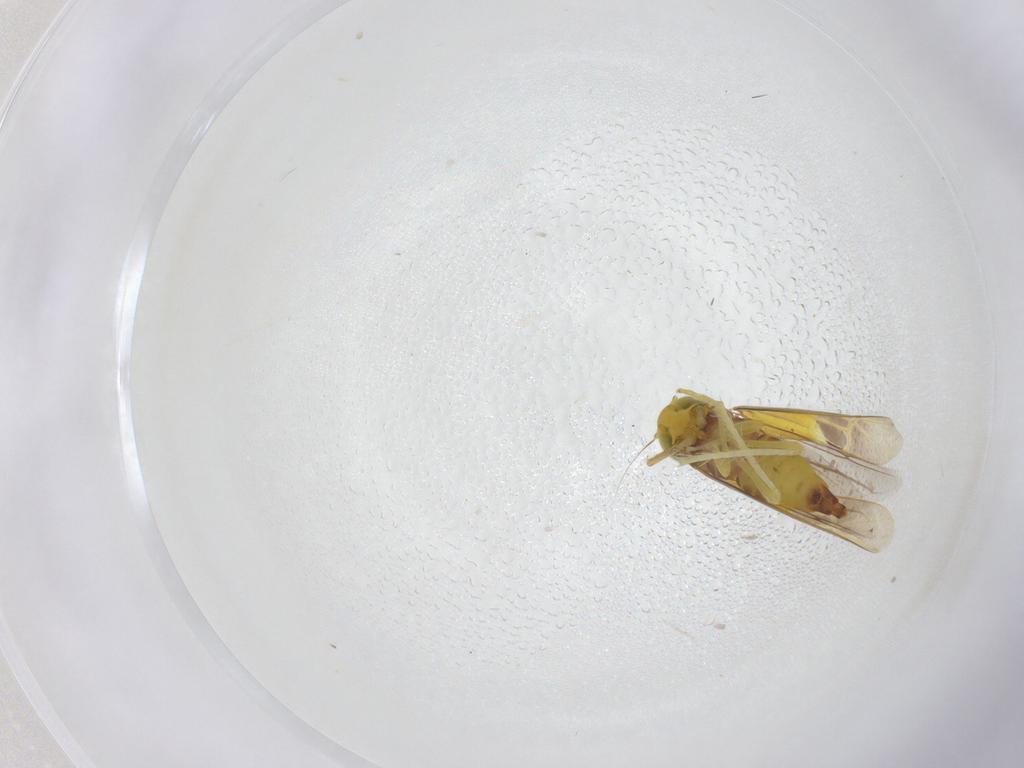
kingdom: Animalia
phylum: Arthropoda
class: Insecta
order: Hemiptera
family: Cicadellidae
